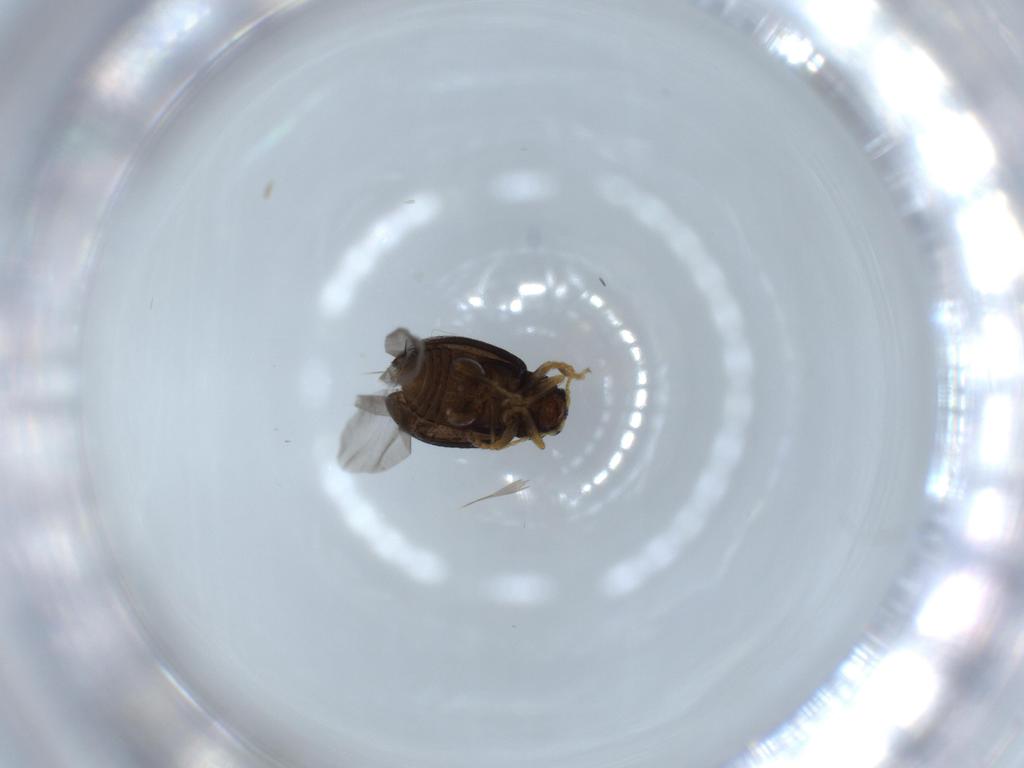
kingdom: Animalia
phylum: Arthropoda
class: Insecta
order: Coleoptera
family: Chrysomelidae
